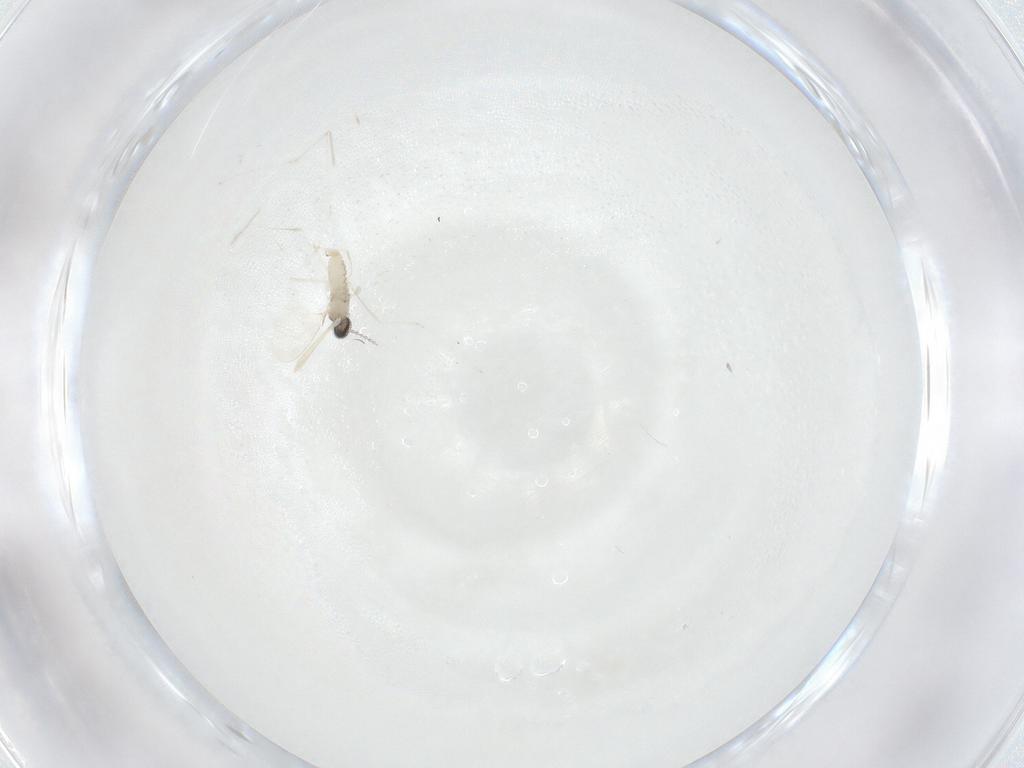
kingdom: Animalia
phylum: Arthropoda
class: Insecta
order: Diptera
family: Cecidomyiidae
